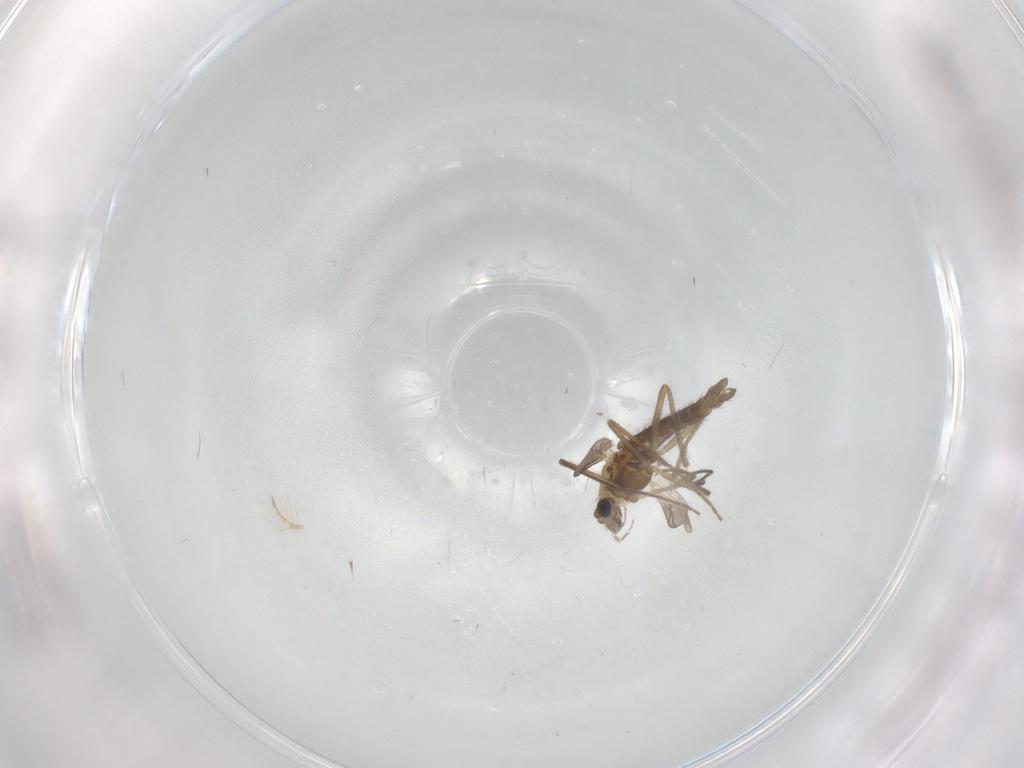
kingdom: Animalia
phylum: Arthropoda
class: Insecta
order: Diptera
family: Chironomidae
